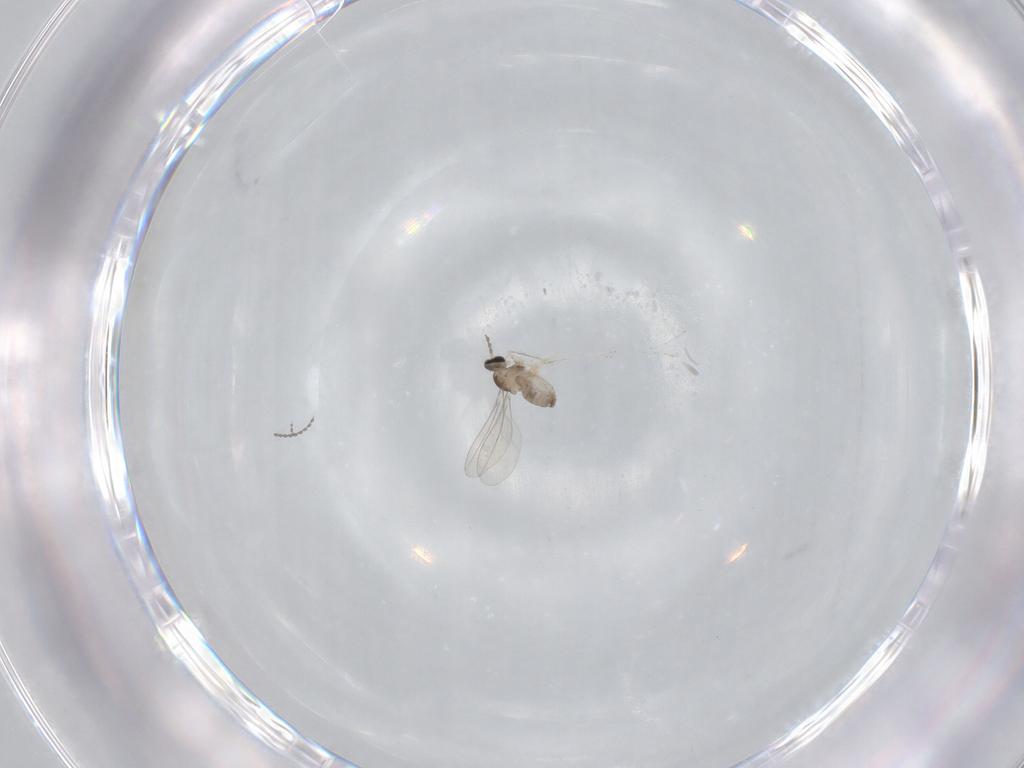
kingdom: Animalia
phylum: Arthropoda
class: Insecta
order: Diptera
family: Cecidomyiidae
